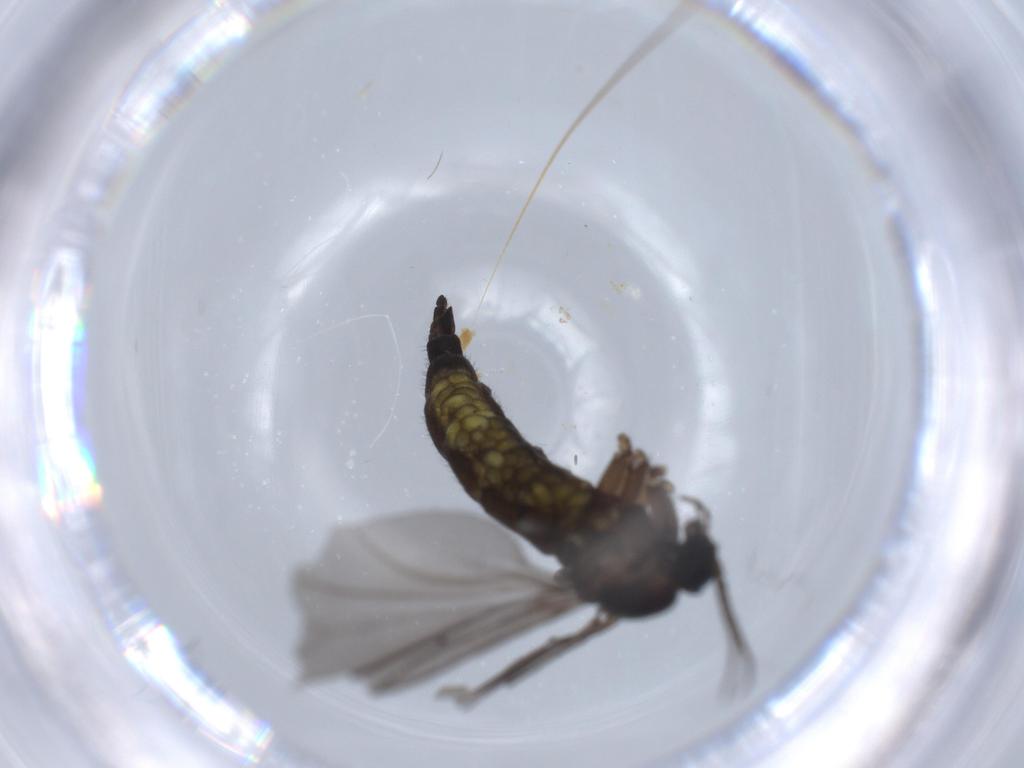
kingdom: Animalia
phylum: Arthropoda
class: Insecta
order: Diptera
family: Sciaridae
